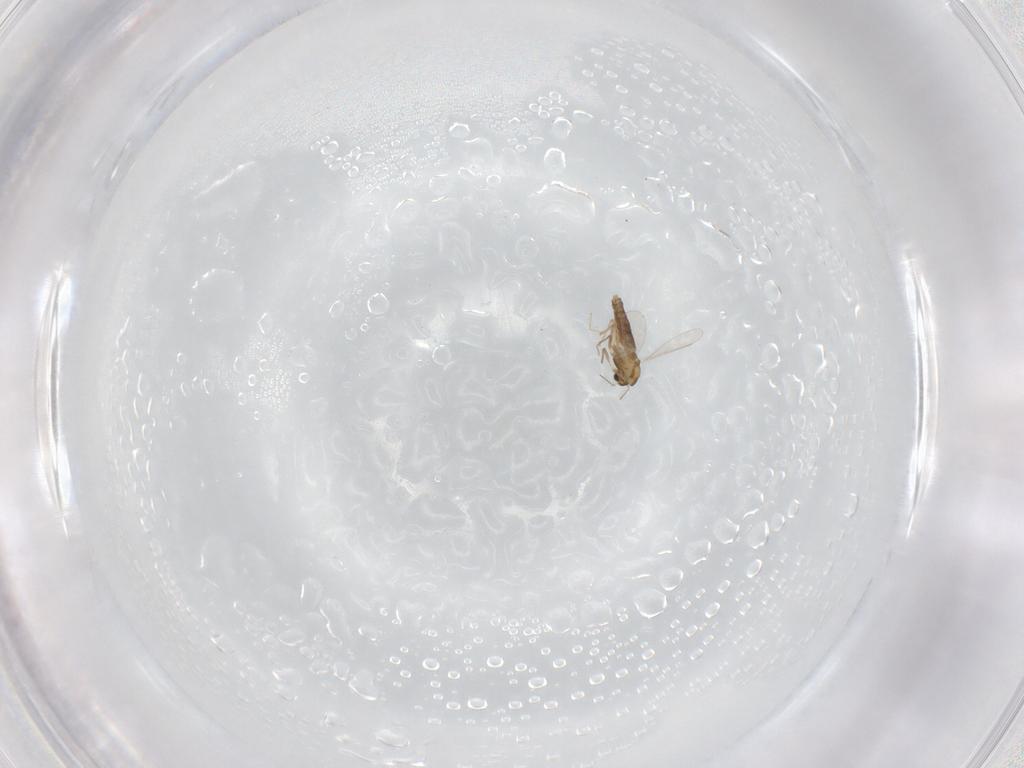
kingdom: Animalia
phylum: Arthropoda
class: Insecta
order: Diptera
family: Chironomidae
